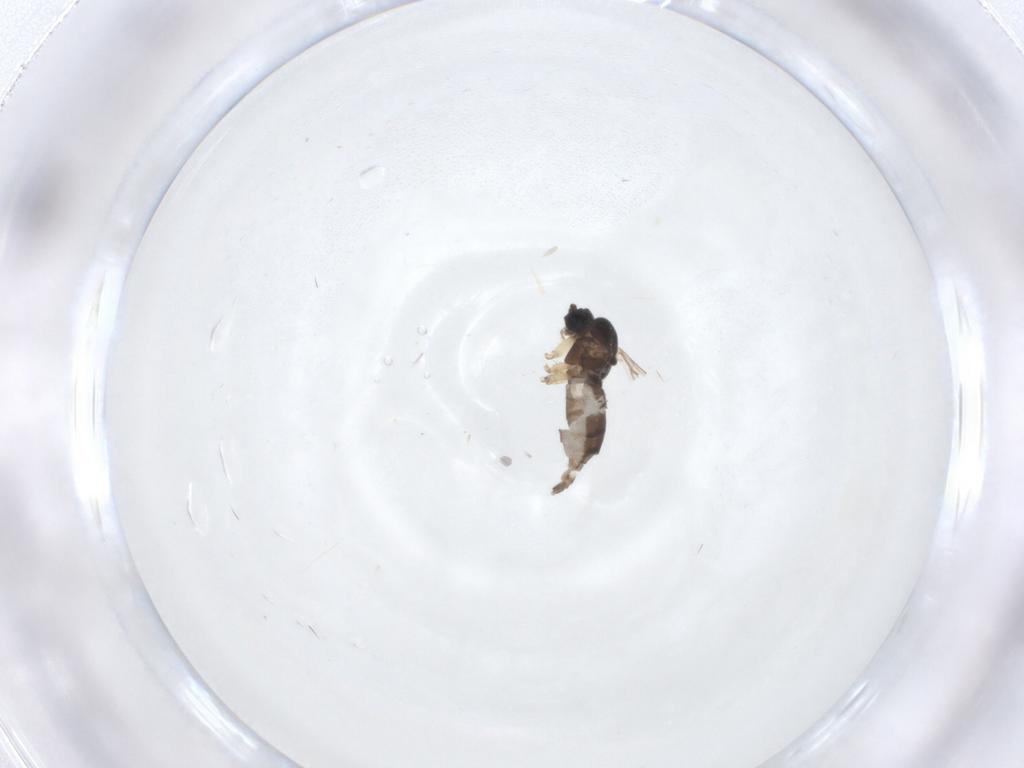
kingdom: Animalia
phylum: Arthropoda
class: Insecta
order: Diptera
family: Sciaridae
